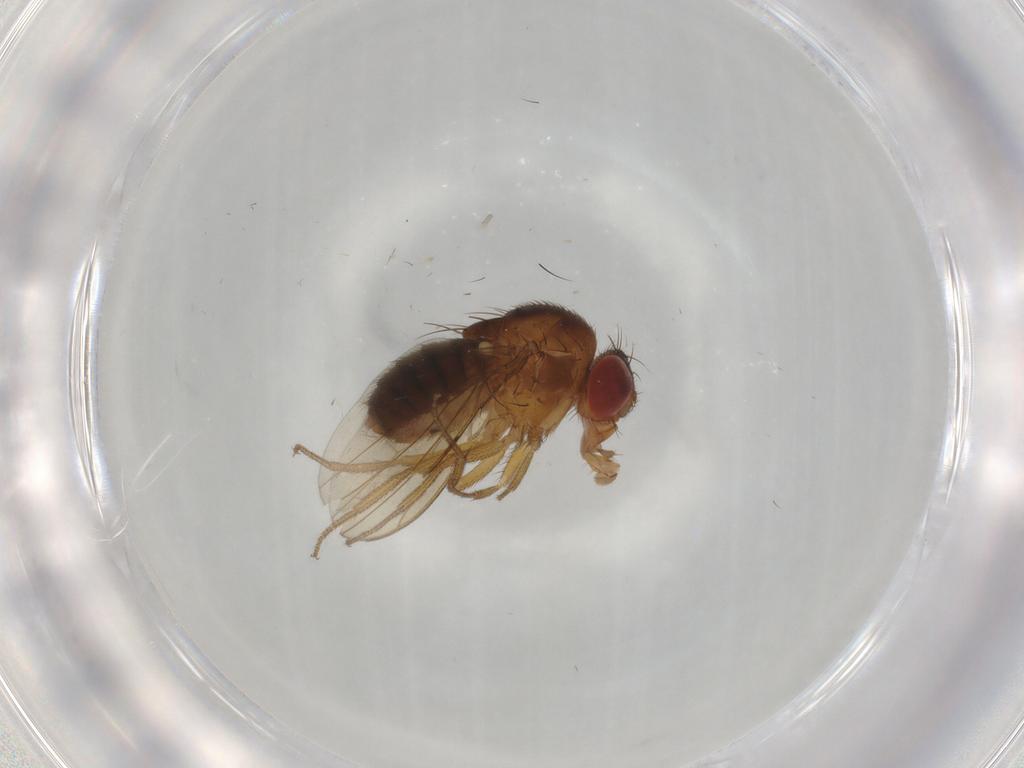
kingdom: Animalia
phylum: Arthropoda
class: Insecta
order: Diptera
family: Drosophilidae
